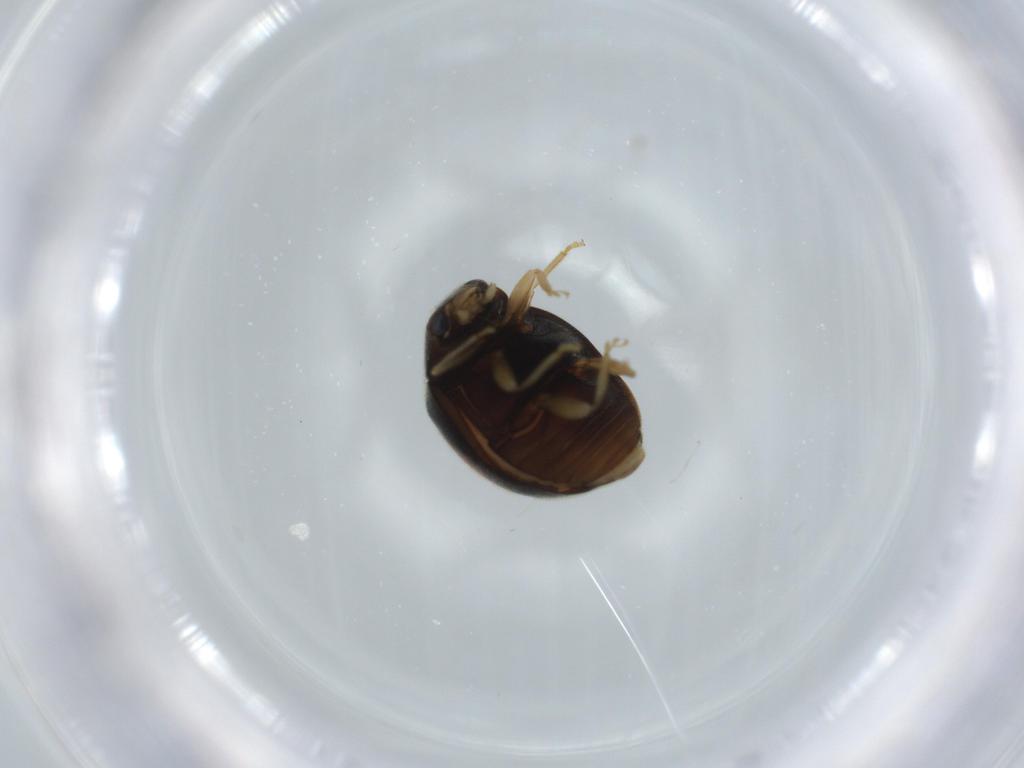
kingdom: Animalia
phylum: Arthropoda
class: Insecta
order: Coleoptera
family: Coccinellidae
